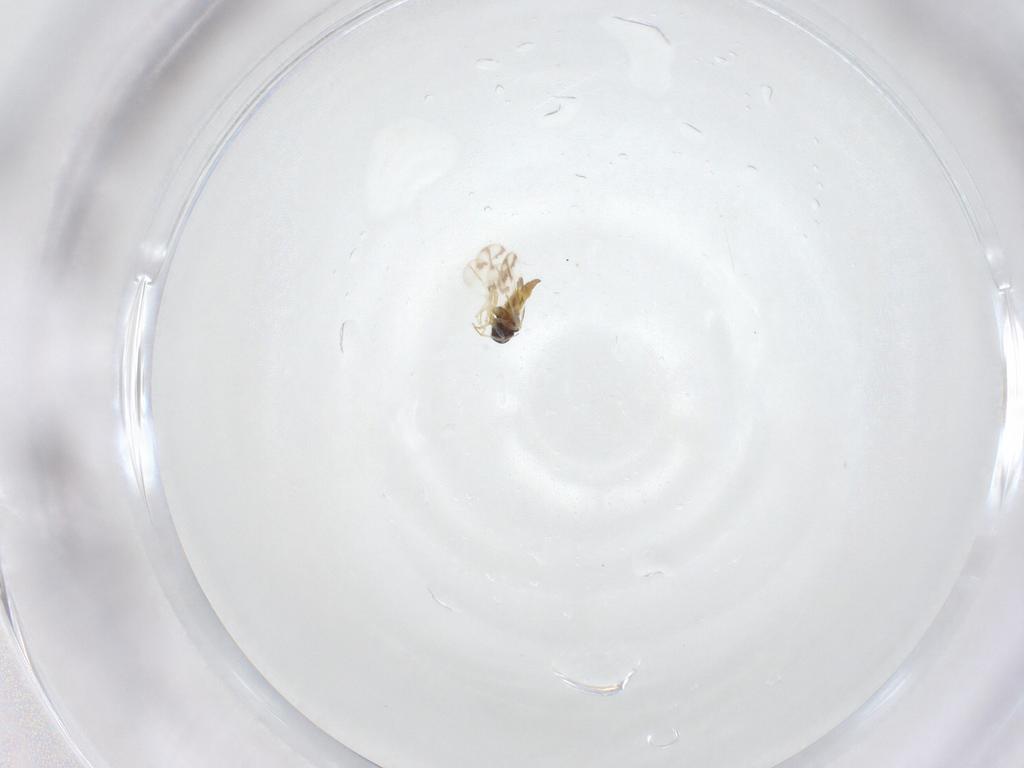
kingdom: Animalia
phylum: Arthropoda
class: Insecta
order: Hemiptera
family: Aleyrodidae
